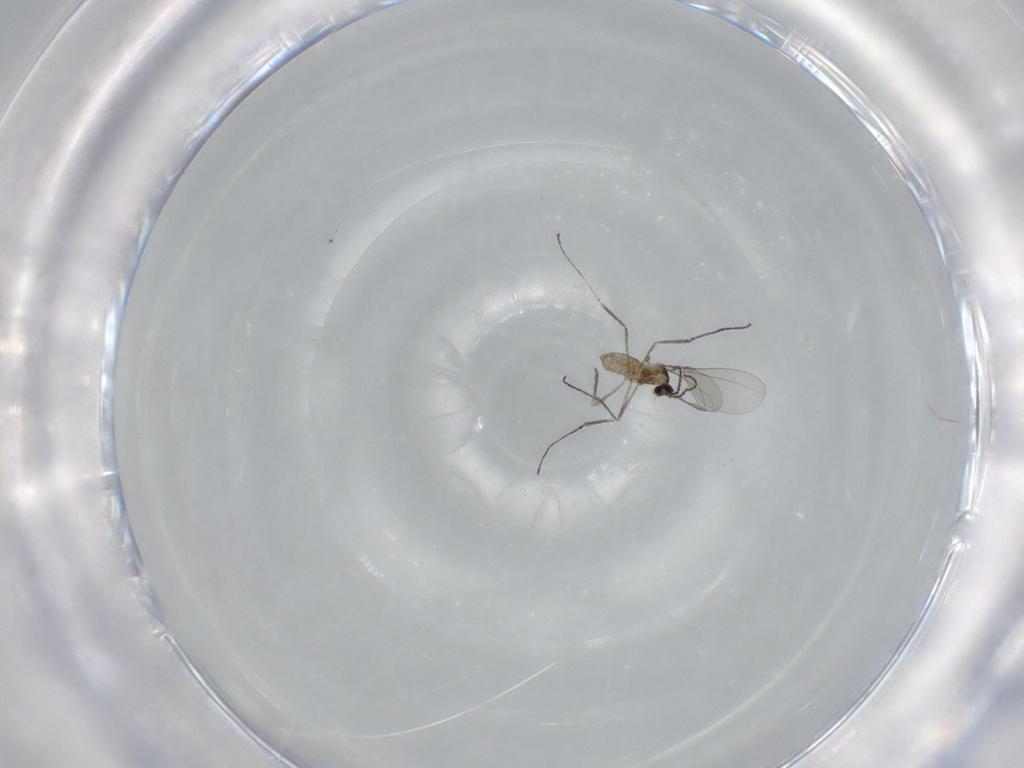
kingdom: Animalia
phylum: Arthropoda
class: Insecta
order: Diptera
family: Cecidomyiidae
